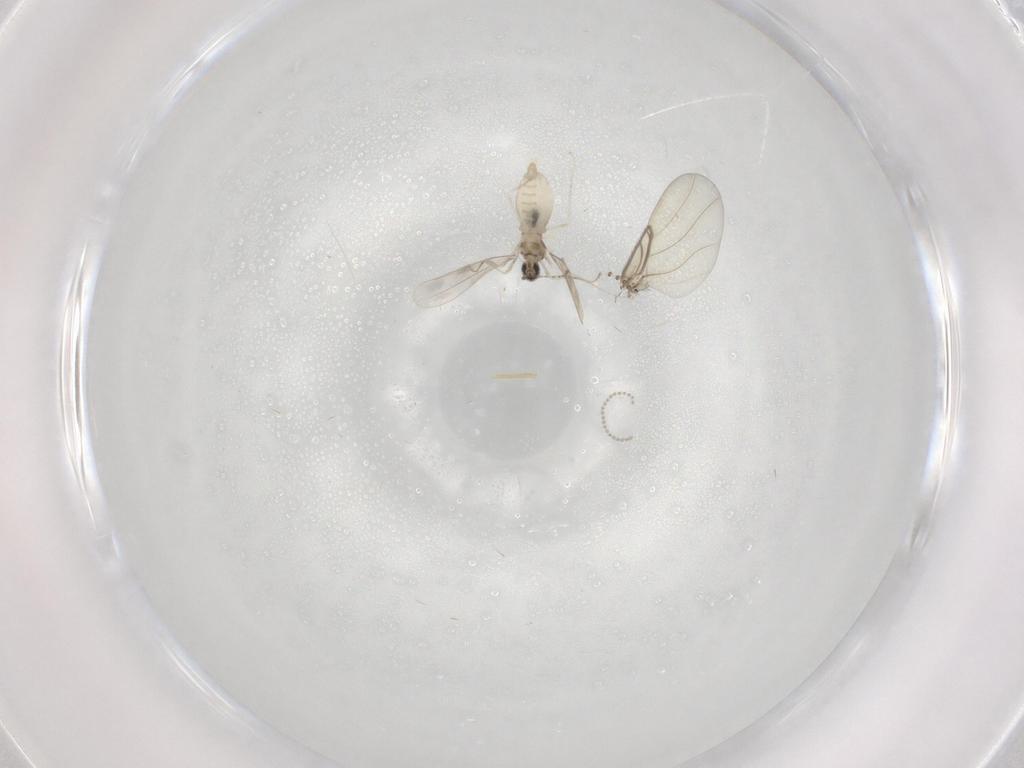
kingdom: Animalia
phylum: Arthropoda
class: Insecta
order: Diptera
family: Cecidomyiidae
